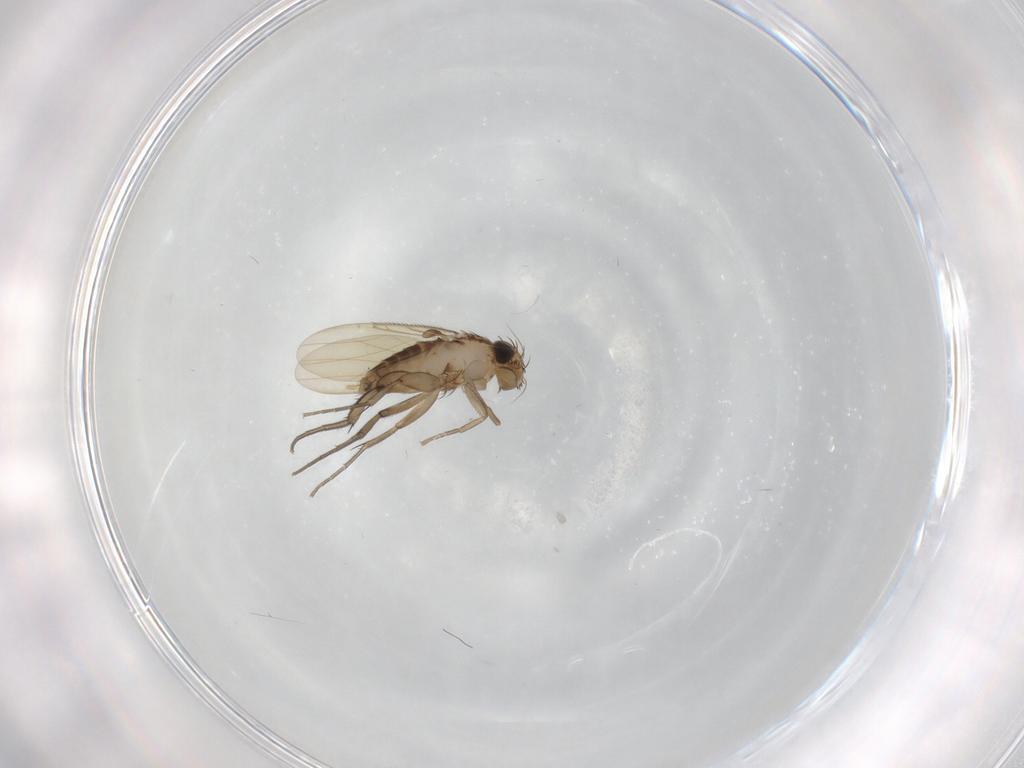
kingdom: Animalia
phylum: Arthropoda
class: Insecta
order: Diptera
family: Phoridae
